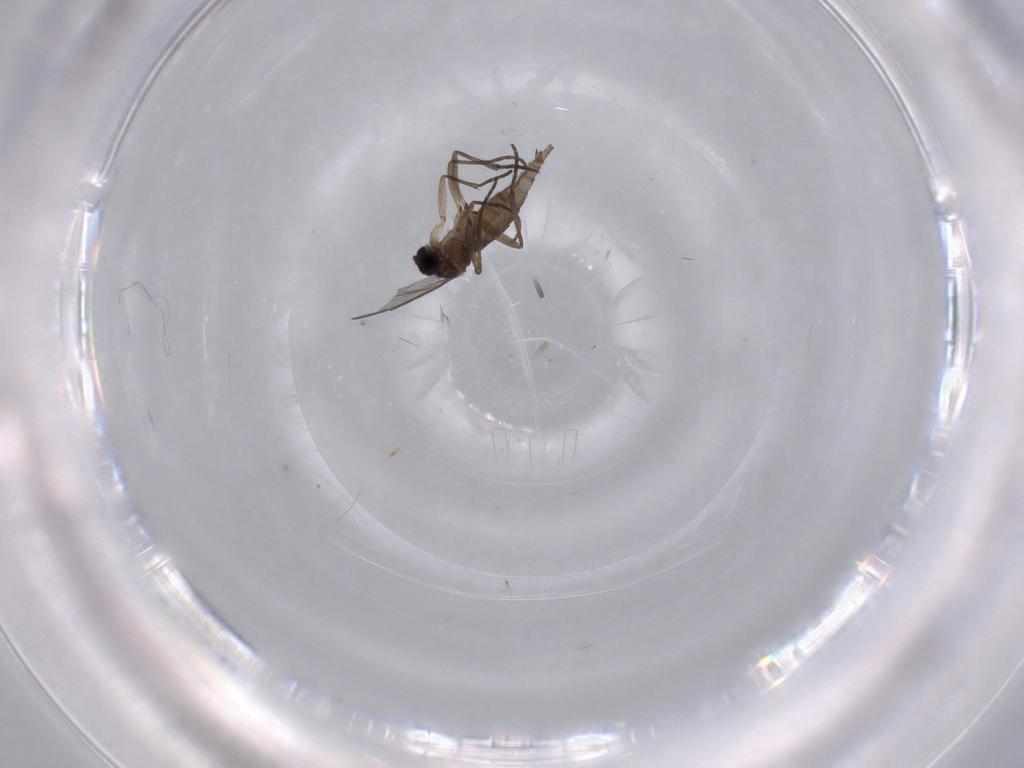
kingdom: Animalia
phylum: Arthropoda
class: Insecta
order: Diptera
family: Sciaridae
